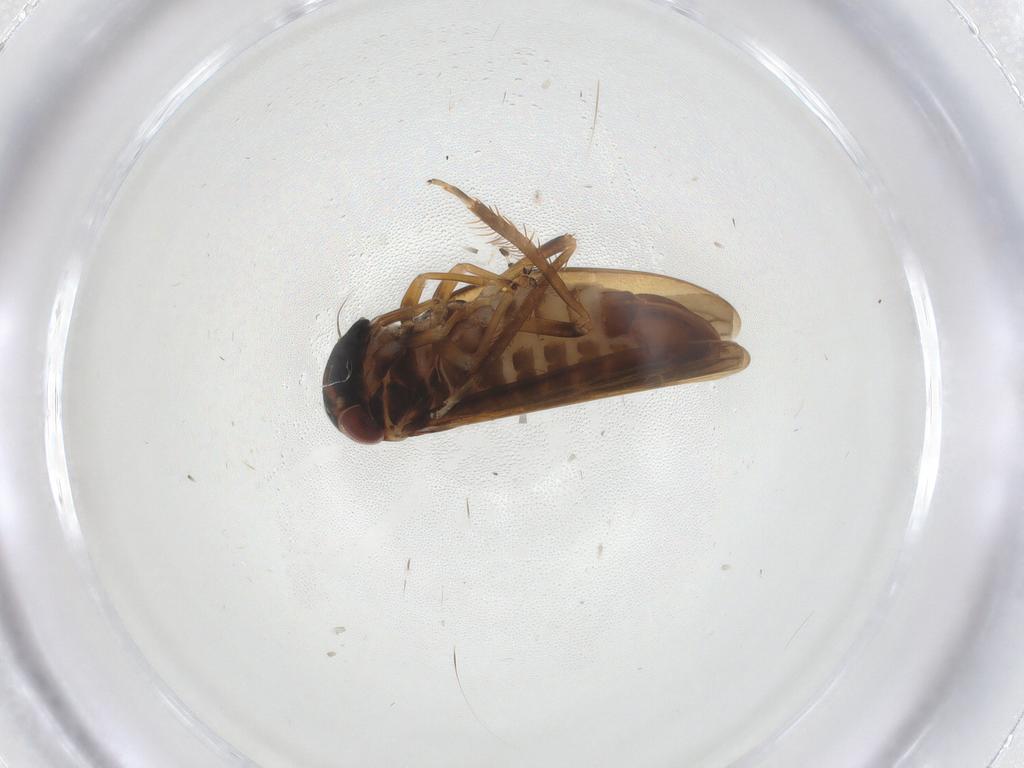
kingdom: Animalia
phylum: Arthropoda
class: Insecta
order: Hemiptera
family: Cicadellidae
